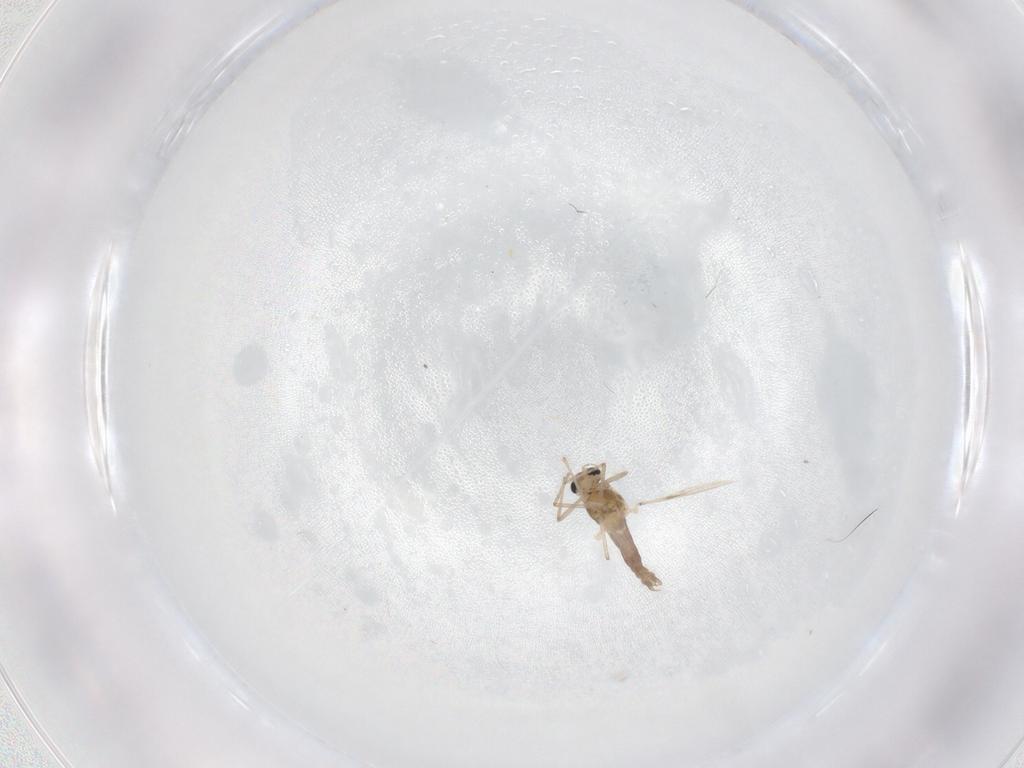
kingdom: Animalia
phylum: Arthropoda
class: Insecta
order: Diptera
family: Chironomidae
